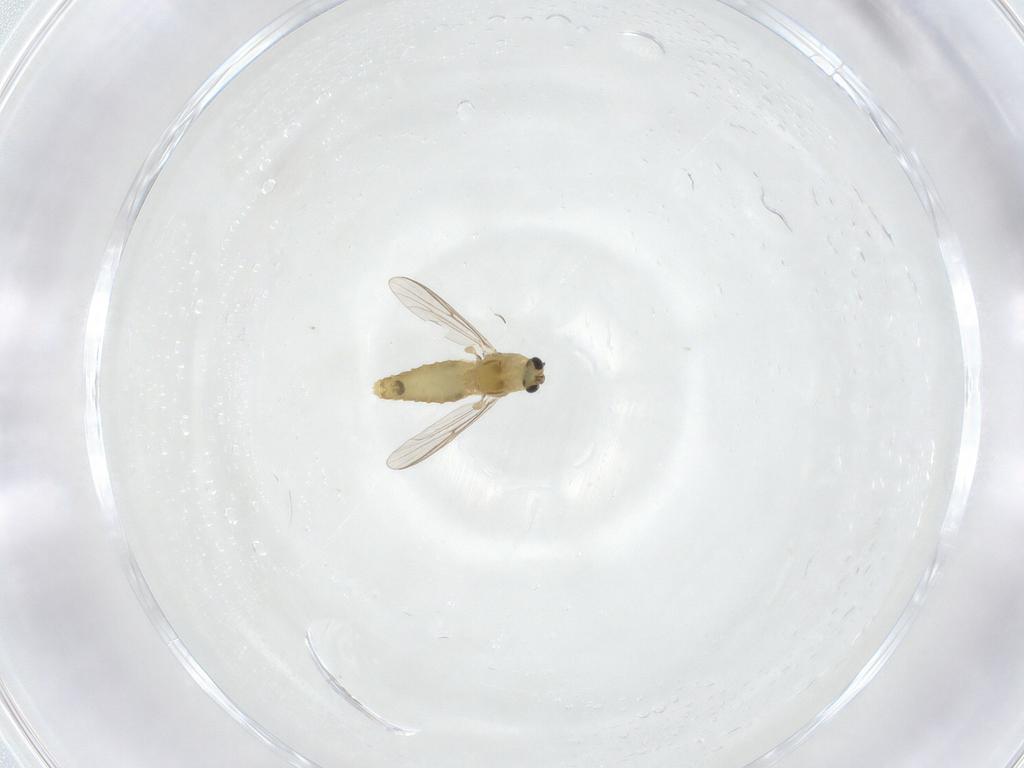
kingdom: Animalia
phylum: Arthropoda
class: Insecta
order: Diptera
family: Chironomidae
